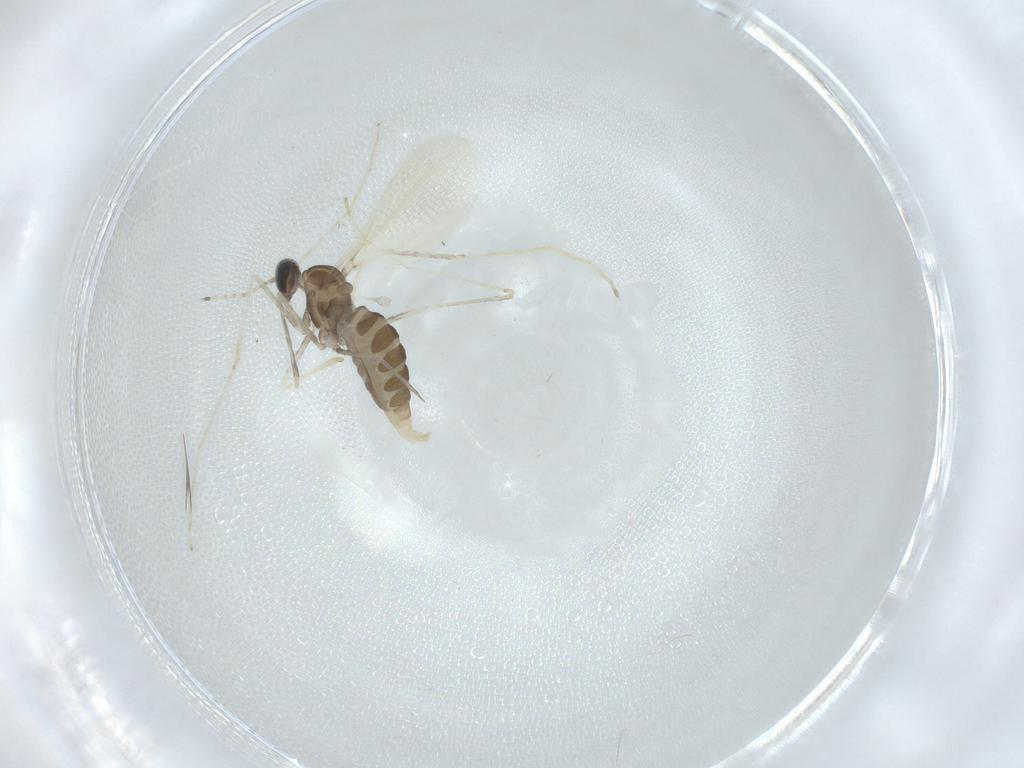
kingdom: Animalia
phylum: Arthropoda
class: Insecta
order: Diptera
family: Cecidomyiidae
